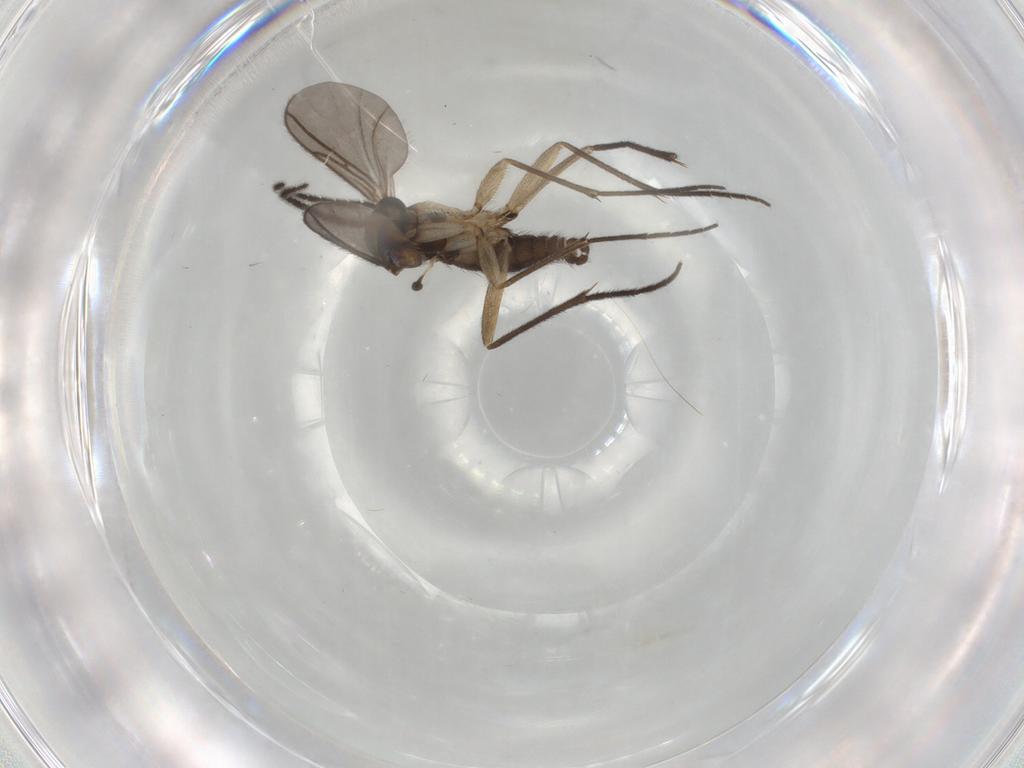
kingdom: Animalia
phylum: Arthropoda
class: Insecta
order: Diptera
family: Sciaridae
